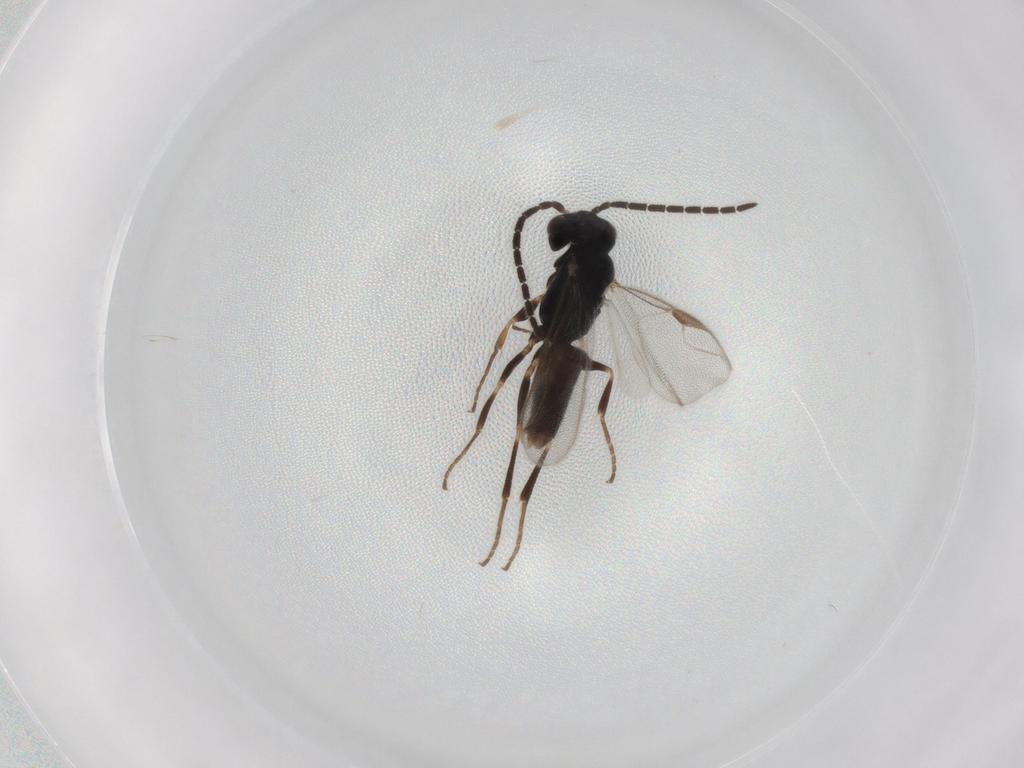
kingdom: Animalia
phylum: Arthropoda
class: Insecta
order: Hymenoptera
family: Dryinidae
